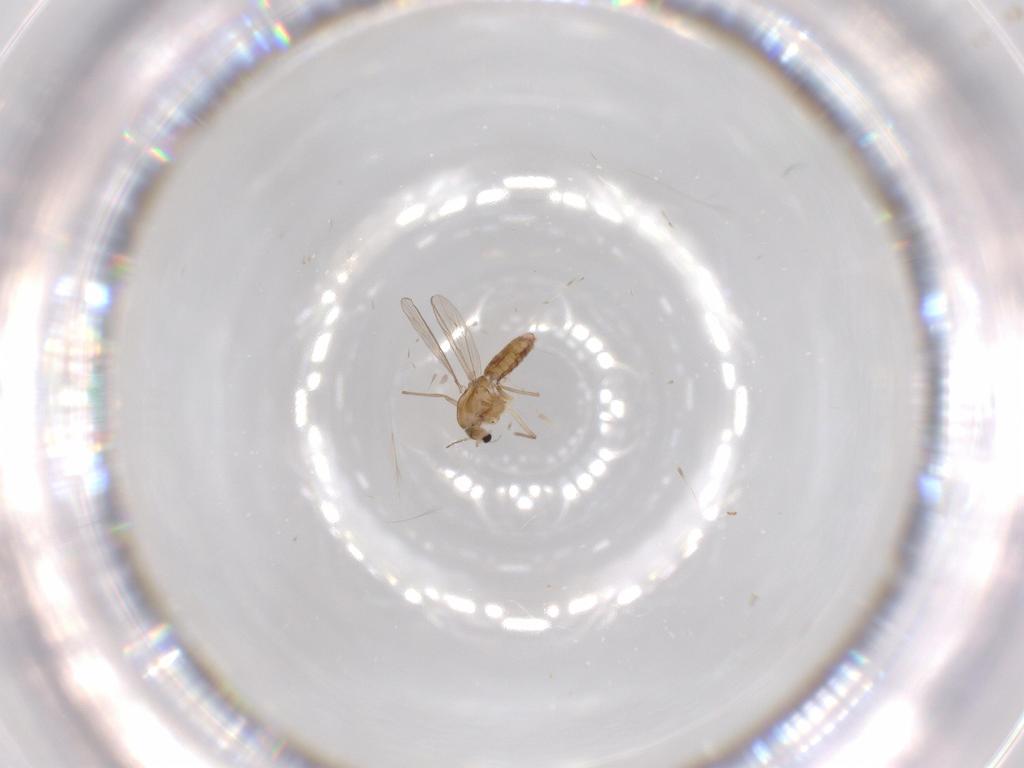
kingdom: Animalia
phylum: Arthropoda
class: Insecta
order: Diptera
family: Chironomidae
